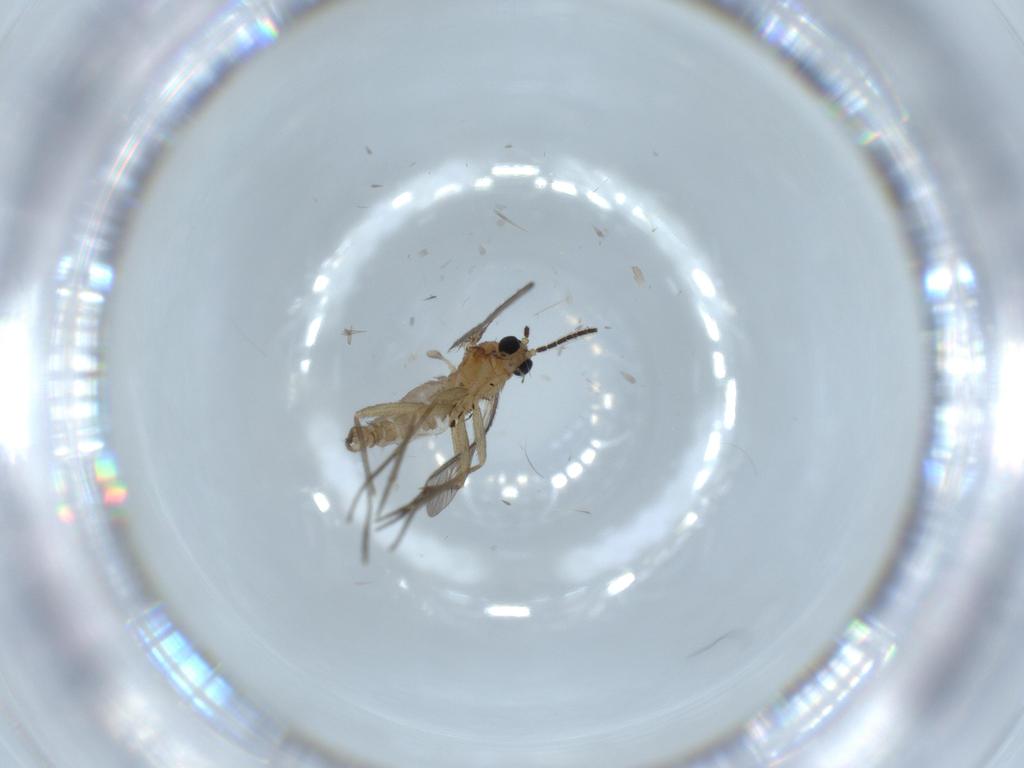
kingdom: Animalia
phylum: Arthropoda
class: Insecta
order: Diptera
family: Sciaridae
